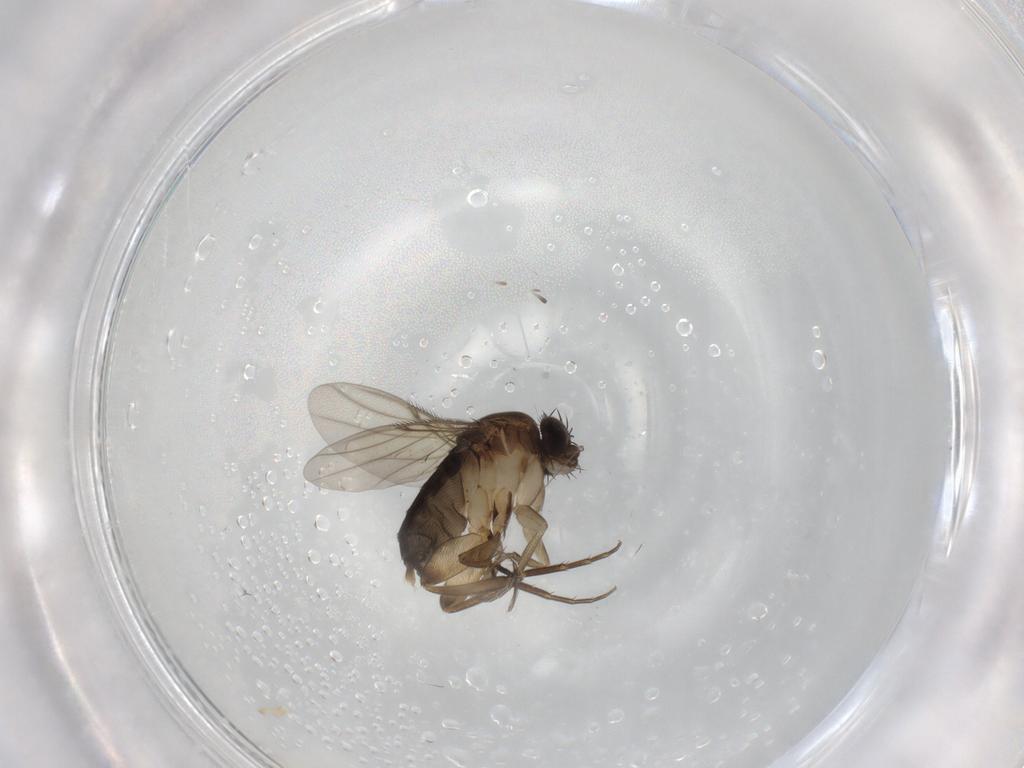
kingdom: Animalia
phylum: Arthropoda
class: Insecta
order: Diptera
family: Phoridae
